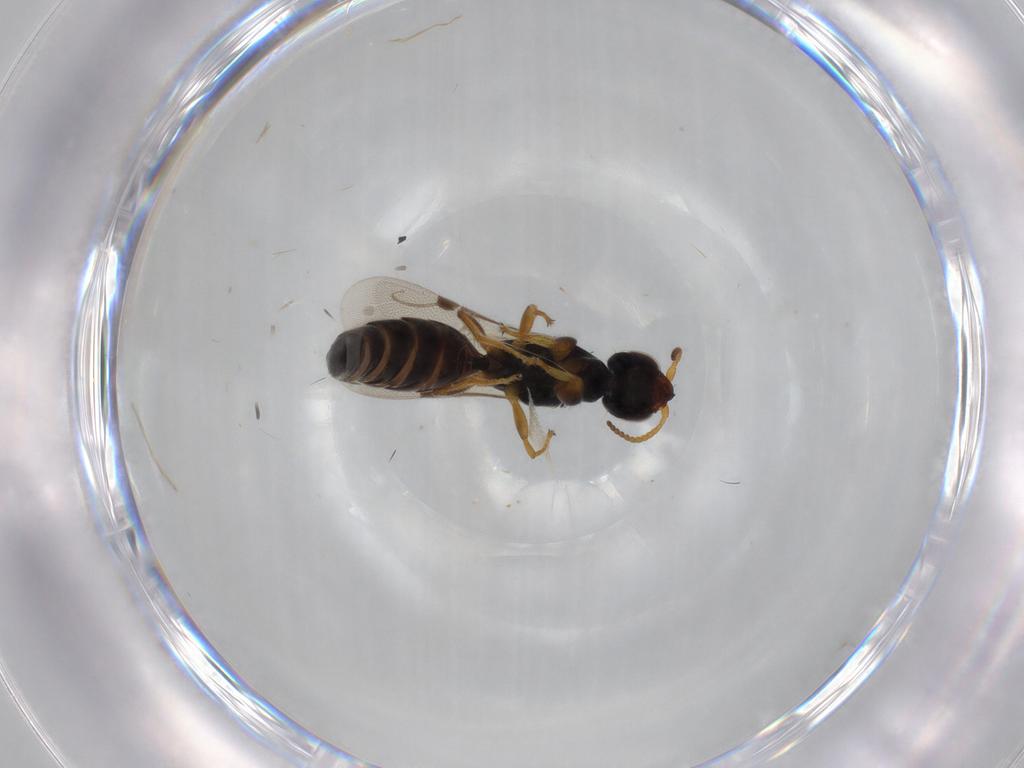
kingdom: Animalia
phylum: Arthropoda
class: Insecta
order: Hymenoptera
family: Bethylidae
